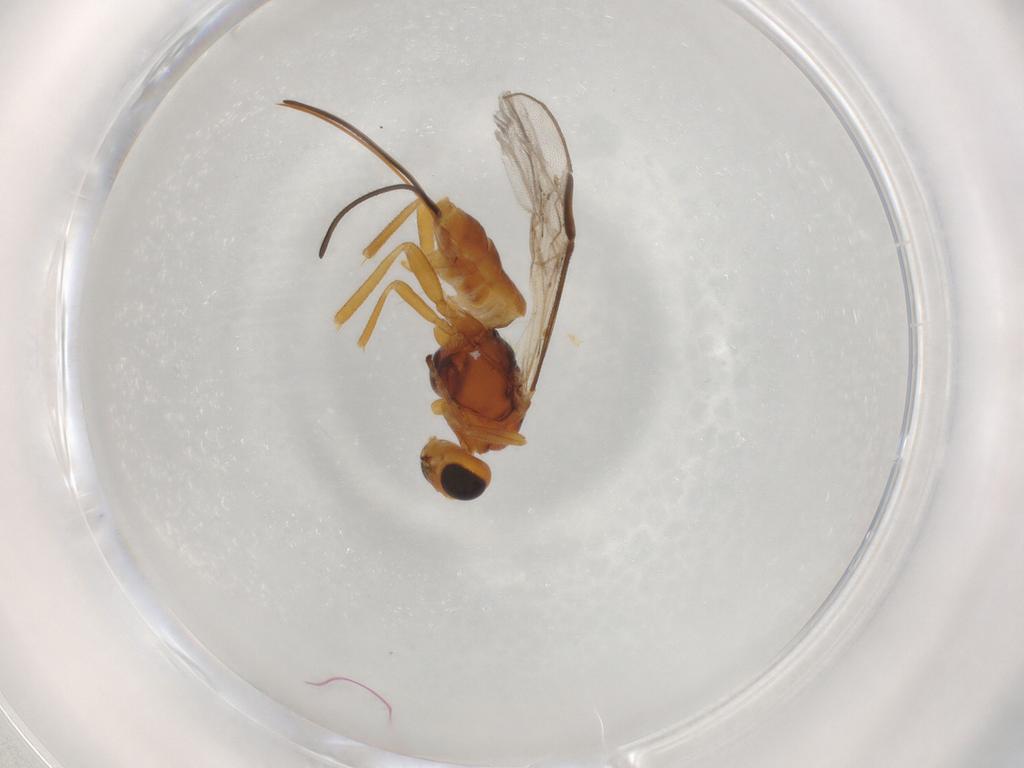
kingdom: Animalia
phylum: Arthropoda
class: Insecta
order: Hymenoptera
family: Braconidae
